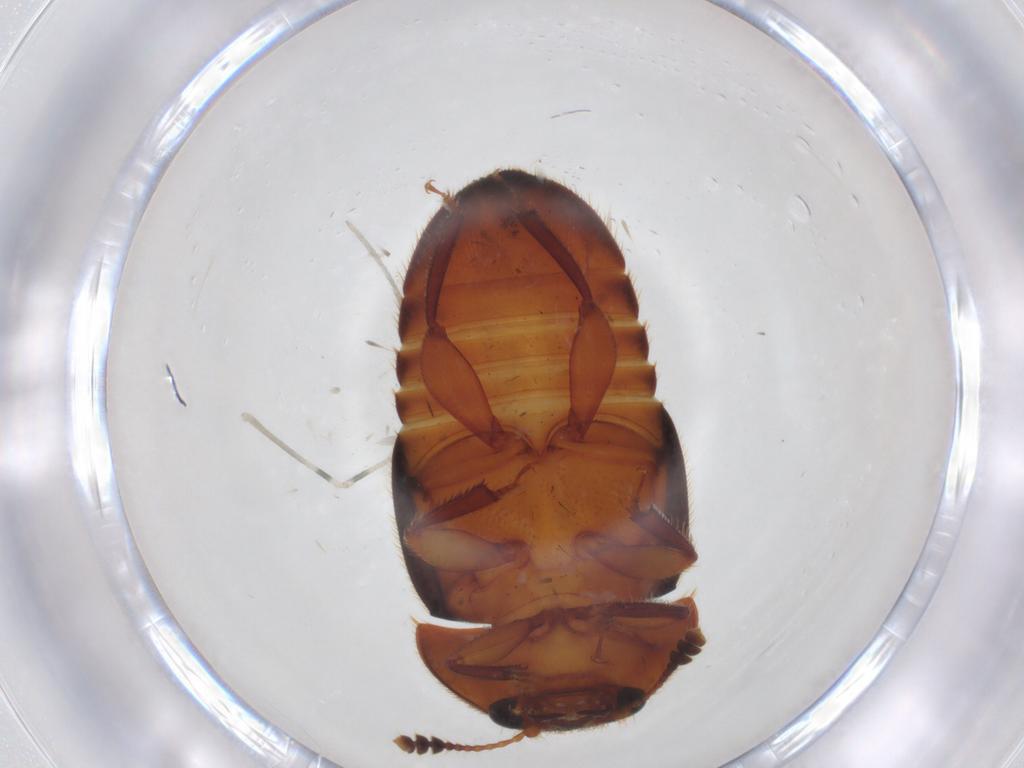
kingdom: Animalia
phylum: Arthropoda
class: Insecta
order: Coleoptera
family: Nitidulidae
